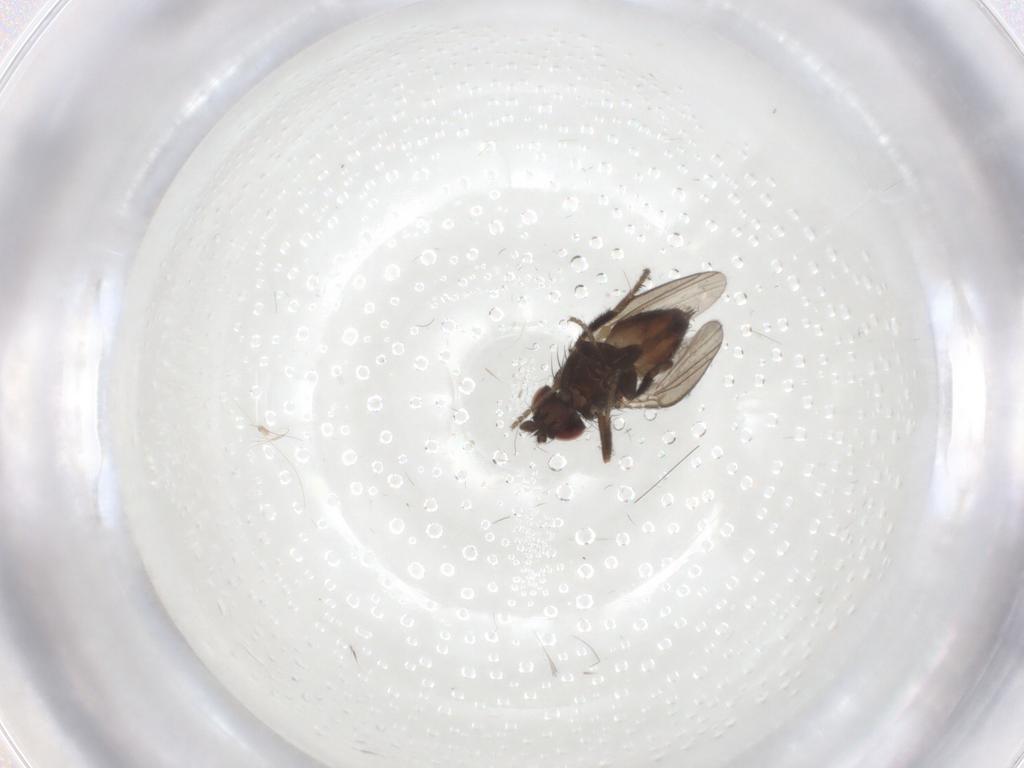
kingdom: Animalia
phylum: Arthropoda
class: Insecta
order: Diptera
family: Milichiidae
